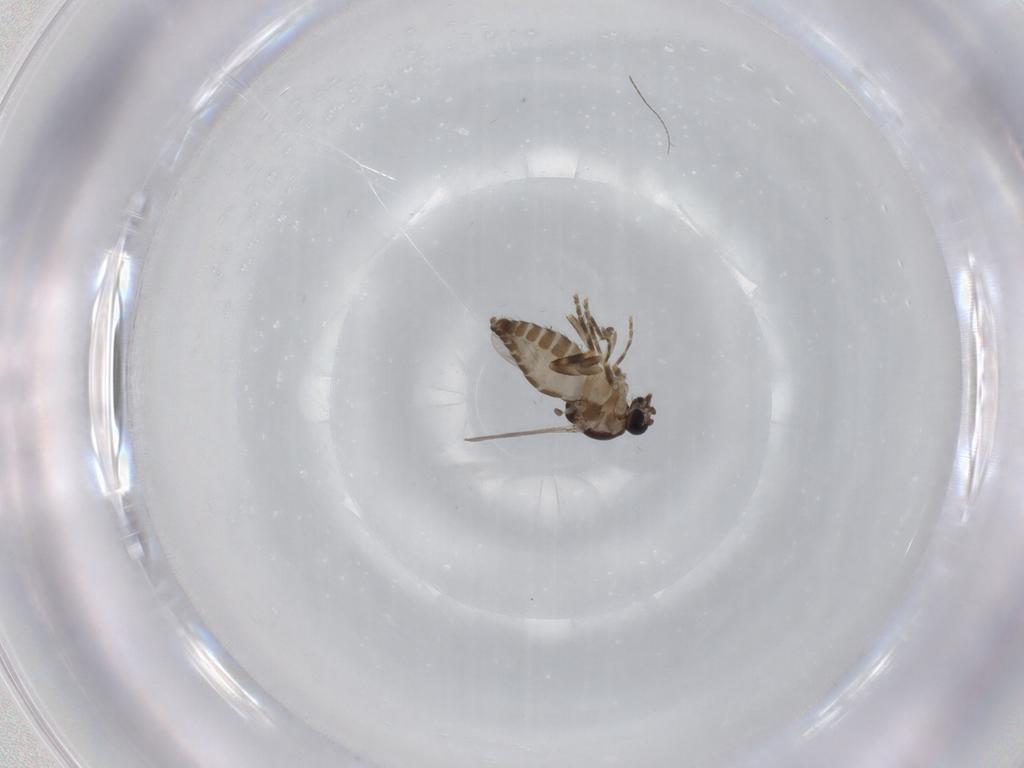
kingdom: Animalia
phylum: Arthropoda
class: Insecta
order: Diptera
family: Ceratopogonidae
